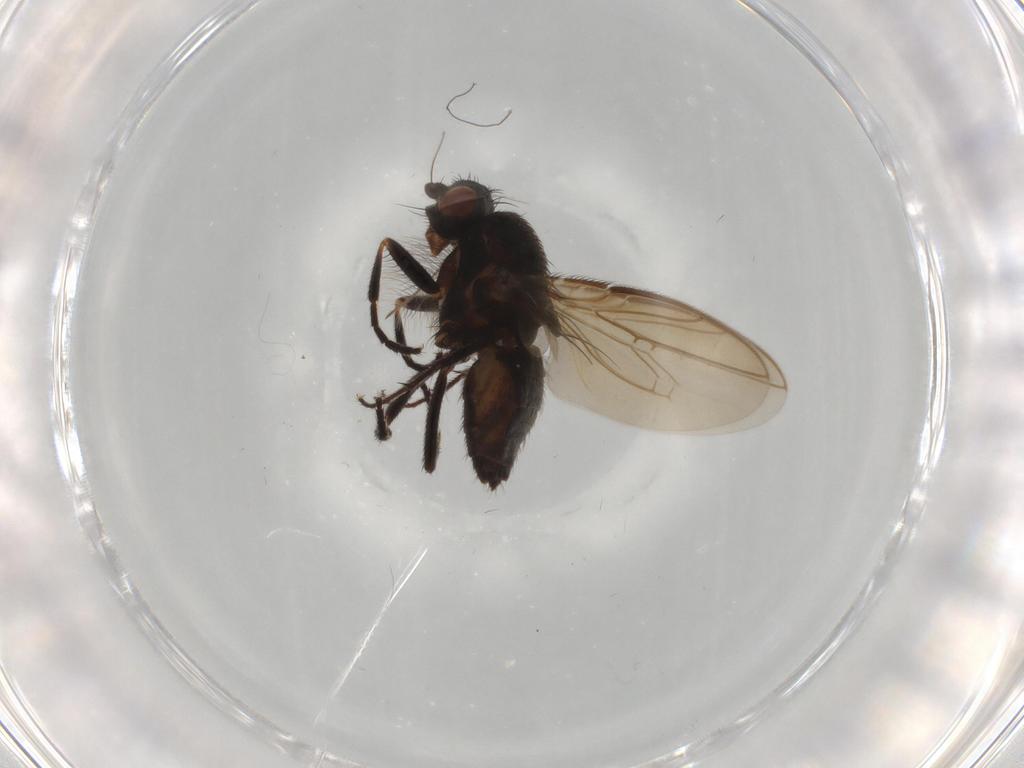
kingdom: Animalia
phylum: Arthropoda
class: Insecta
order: Diptera
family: Sphaeroceridae
